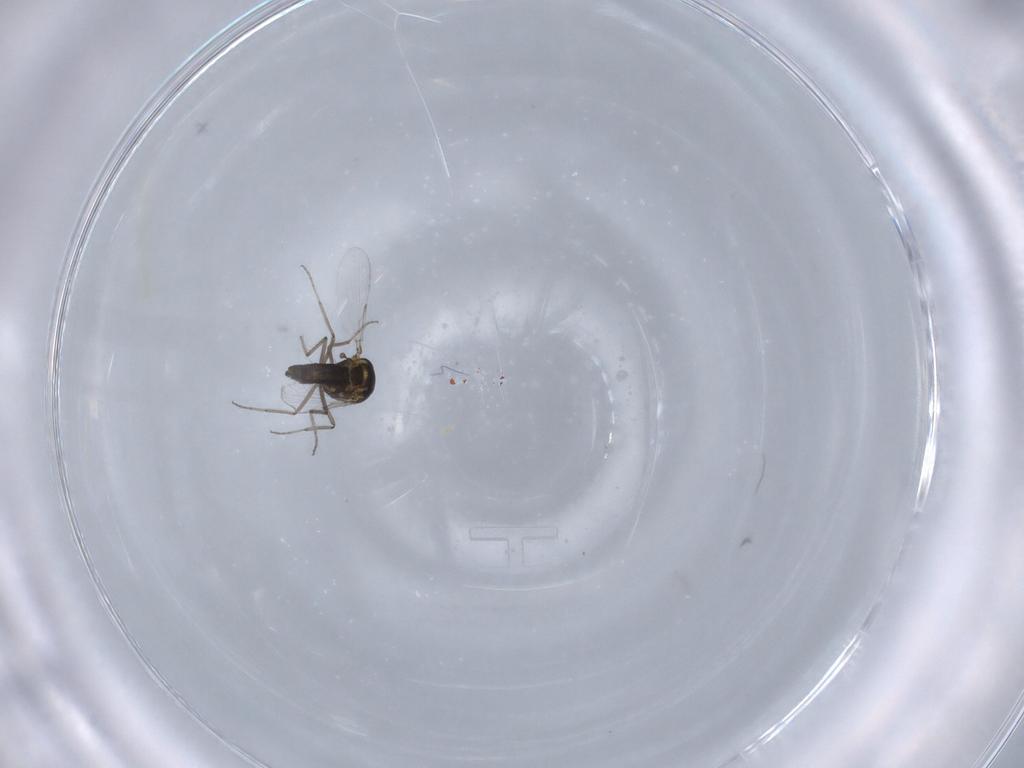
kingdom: Animalia
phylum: Arthropoda
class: Insecta
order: Diptera
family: Ceratopogonidae
